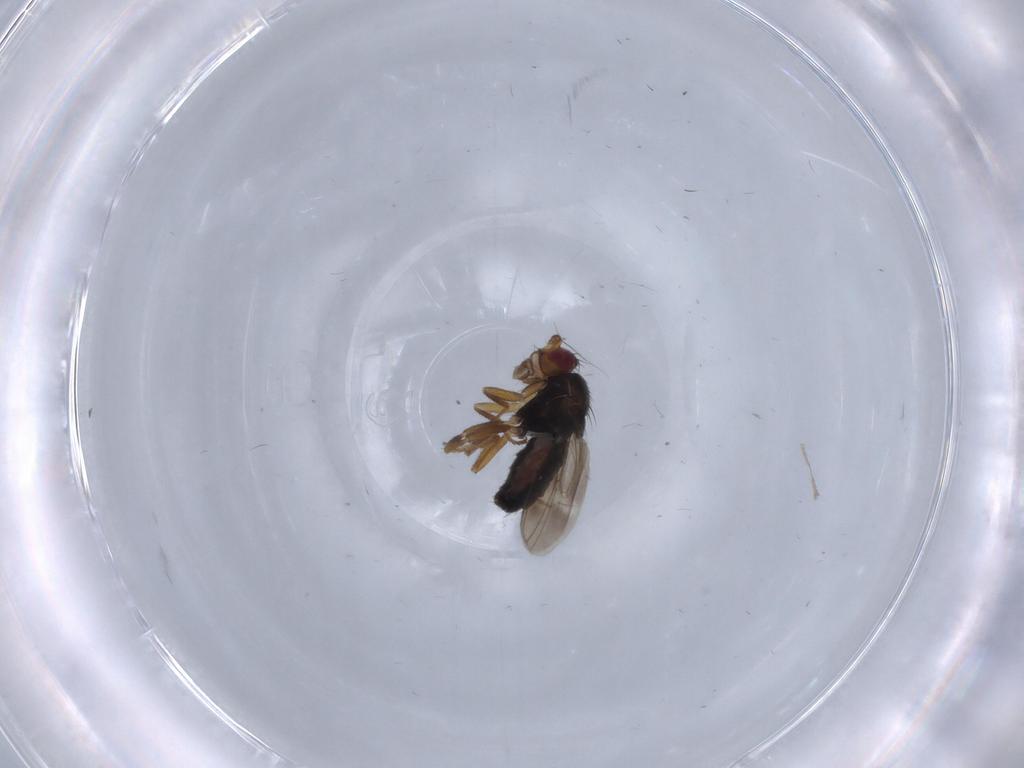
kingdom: Animalia
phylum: Arthropoda
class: Insecta
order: Diptera
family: Sphaeroceridae
